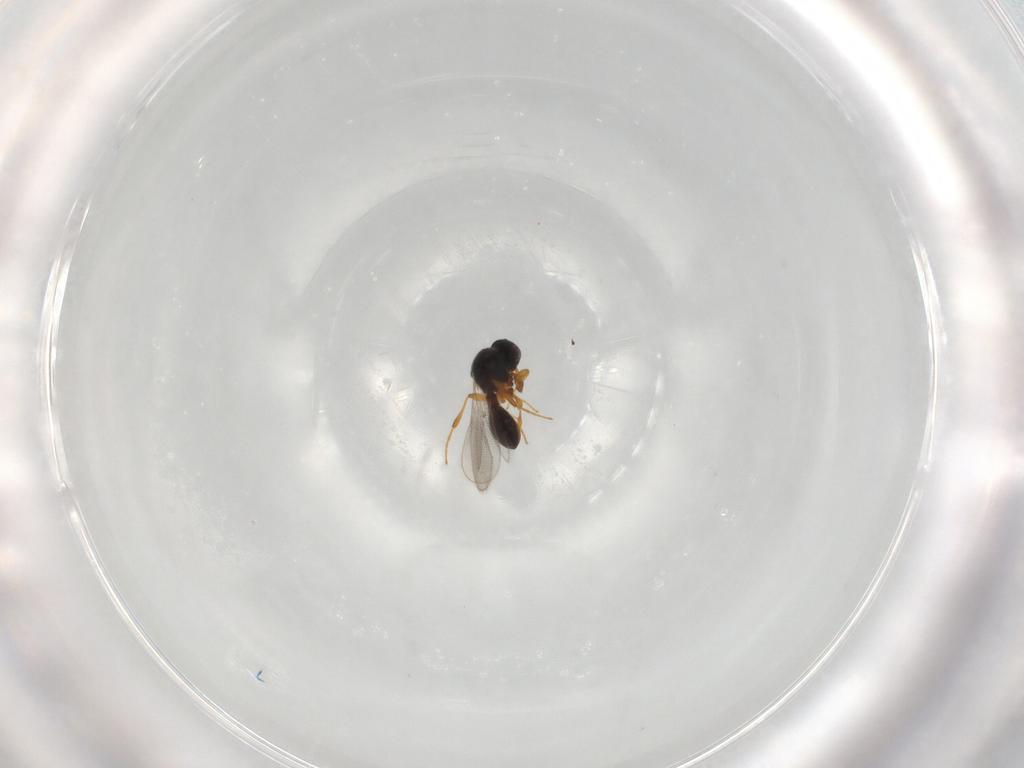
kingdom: Animalia
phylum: Arthropoda
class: Insecta
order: Hymenoptera
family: Platygastridae
